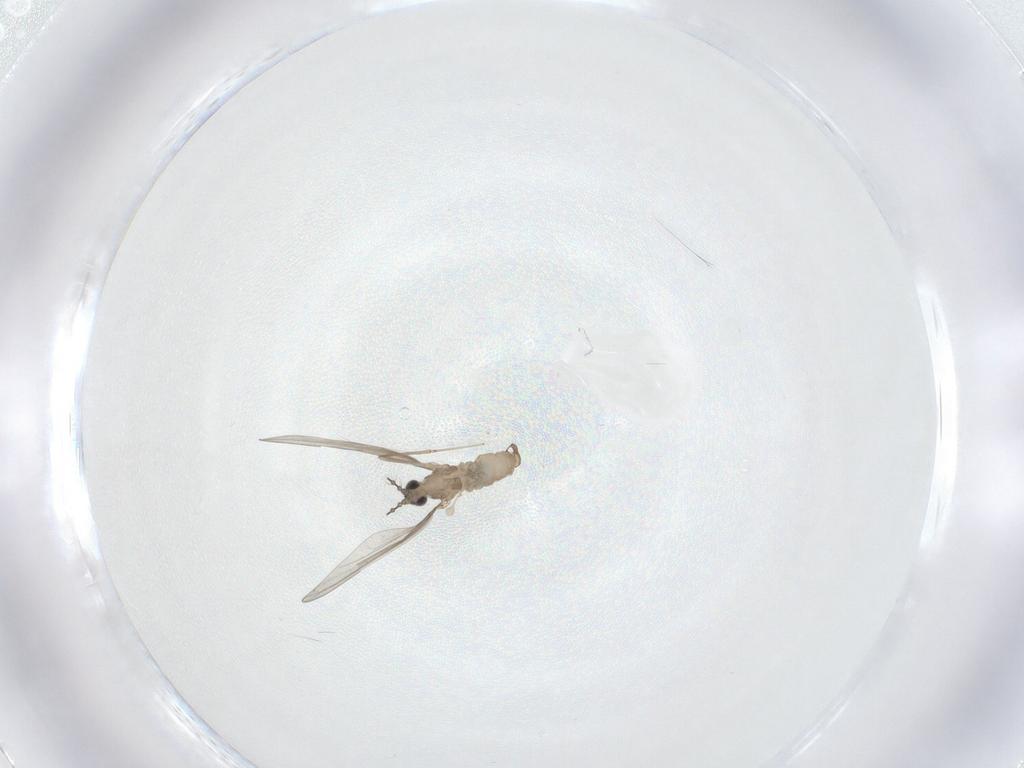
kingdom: Animalia
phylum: Arthropoda
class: Insecta
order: Diptera
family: Cecidomyiidae
